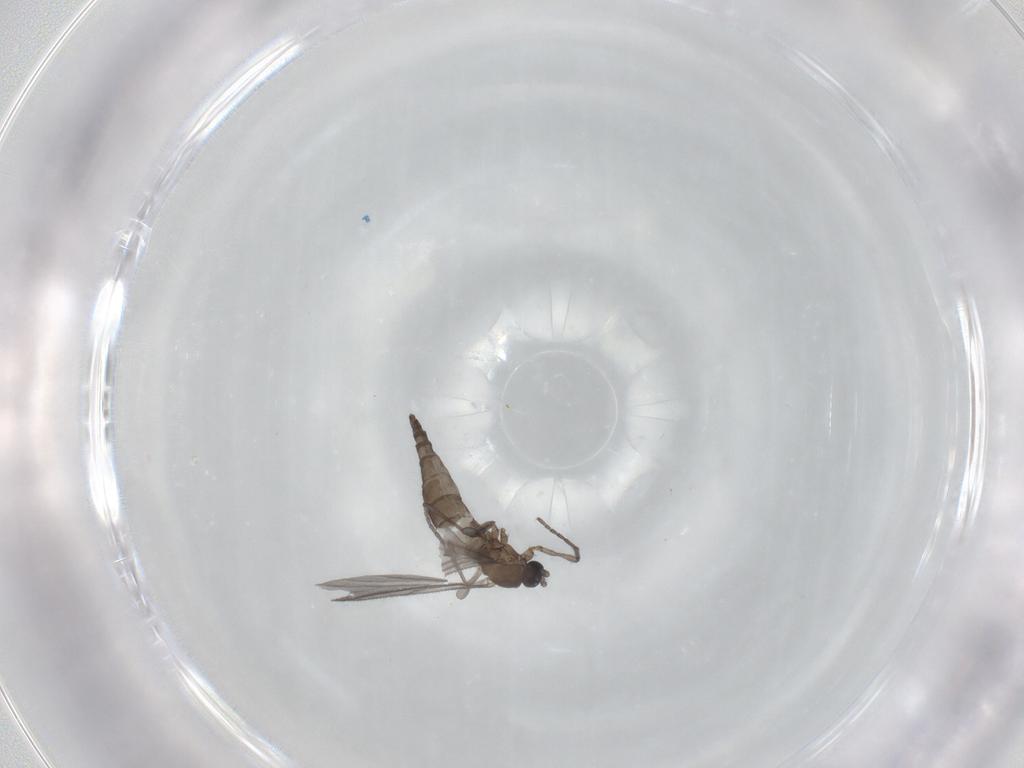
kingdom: Animalia
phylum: Arthropoda
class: Insecta
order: Diptera
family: Sciaridae
